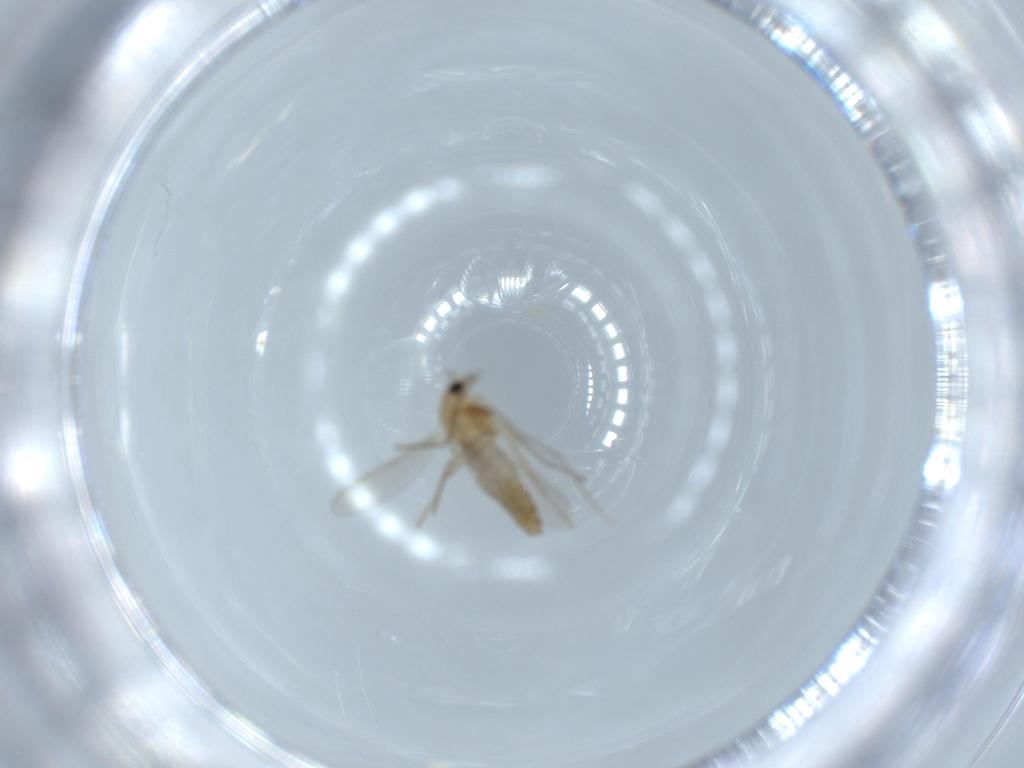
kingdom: Animalia
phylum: Arthropoda
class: Insecta
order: Diptera
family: Chironomidae
